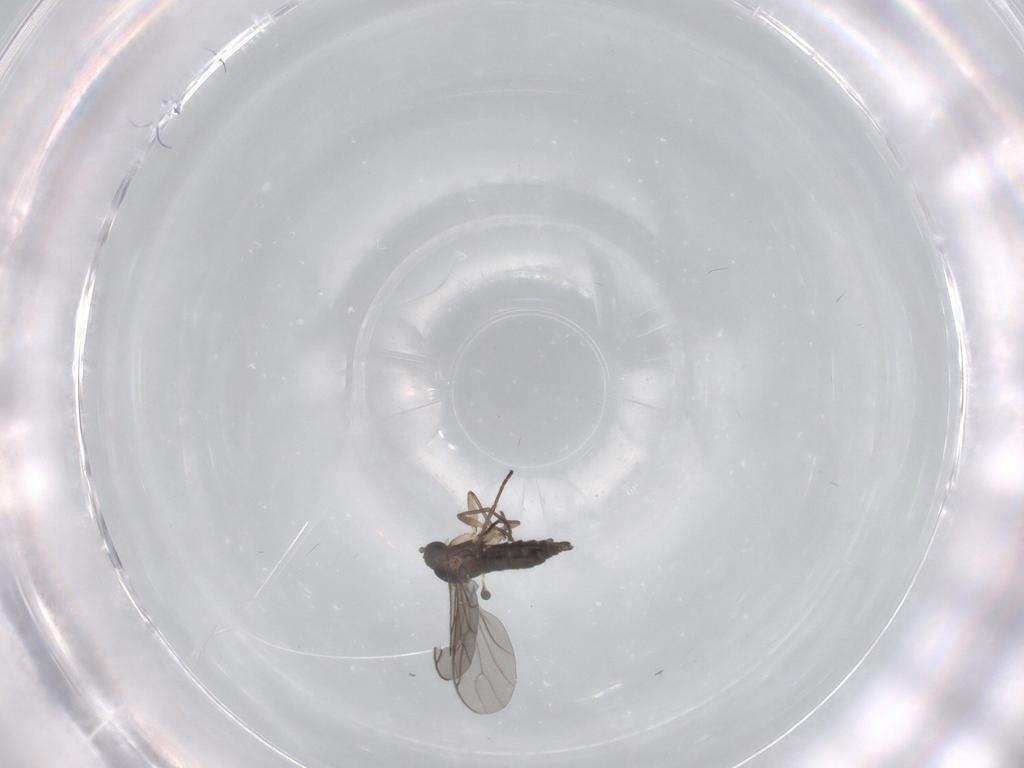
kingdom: Animalia
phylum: Arthropoda
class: Insecta
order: Diptera
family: Sciaridae
